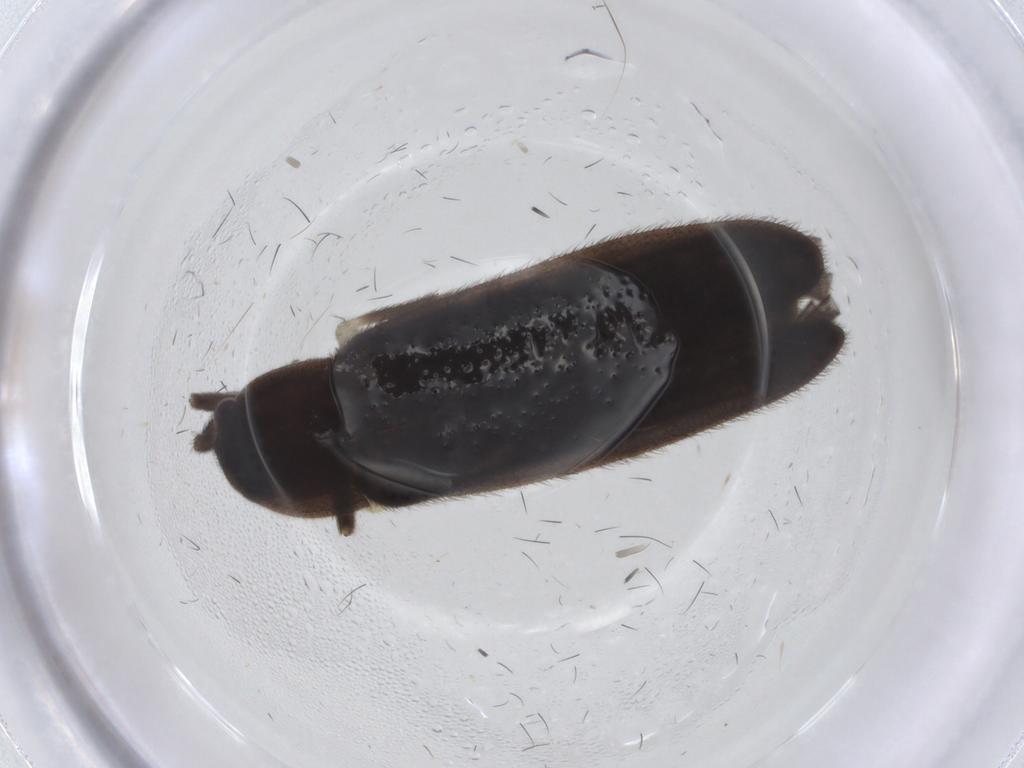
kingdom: Animalia
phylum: Arthropoda
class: Insecta
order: Coleoptera
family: Lampyridae
